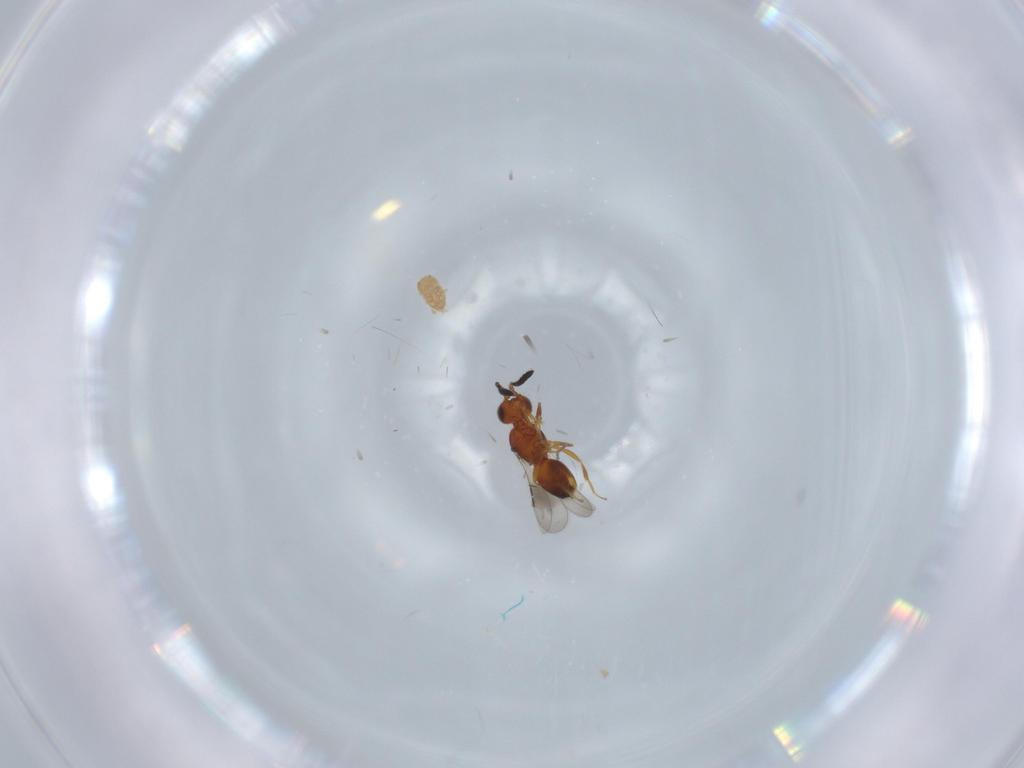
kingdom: Animalia
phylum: Arthropoda
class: Insecta
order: Hymenoptera
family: Ceraphronidae
